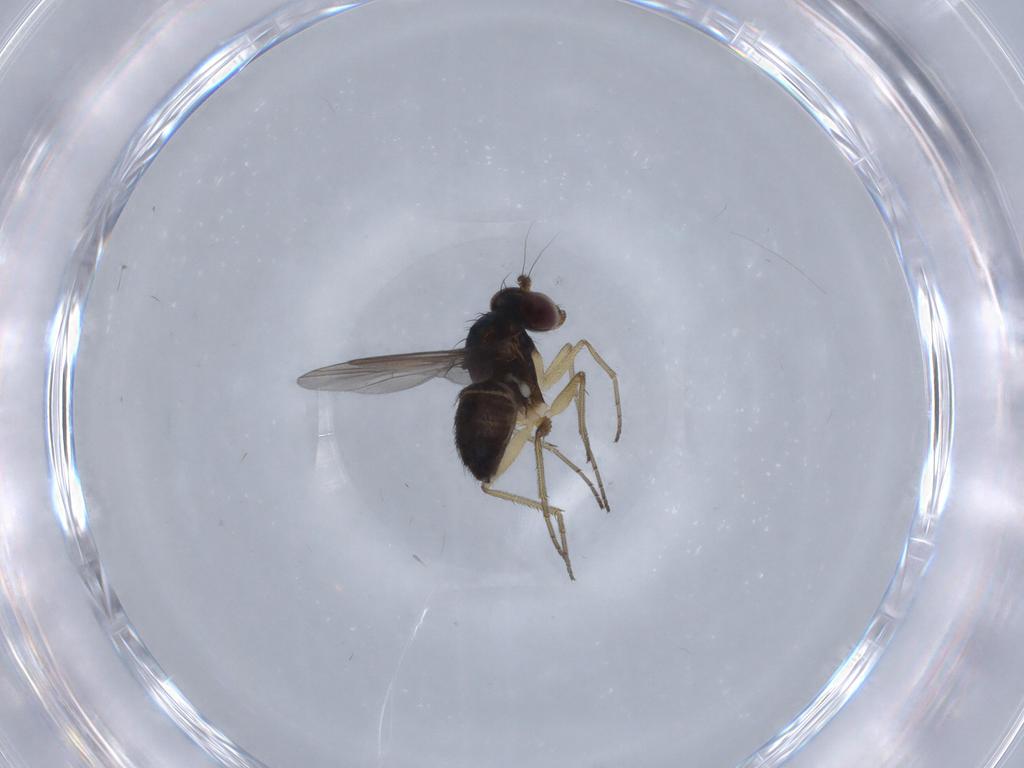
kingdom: Animalia
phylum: Arthropoda
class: Insecta
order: Diptera
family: Dolichopodidae
